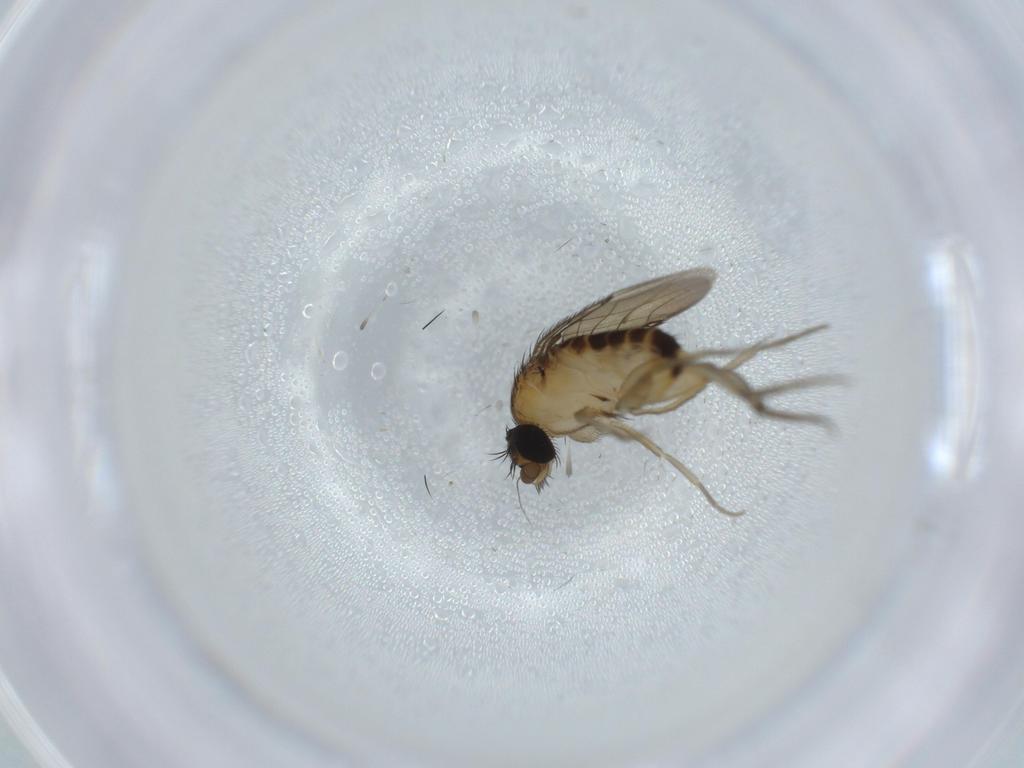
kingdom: Animalia
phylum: Arthropoda
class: Insecta
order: Diptera
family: Phoridae
